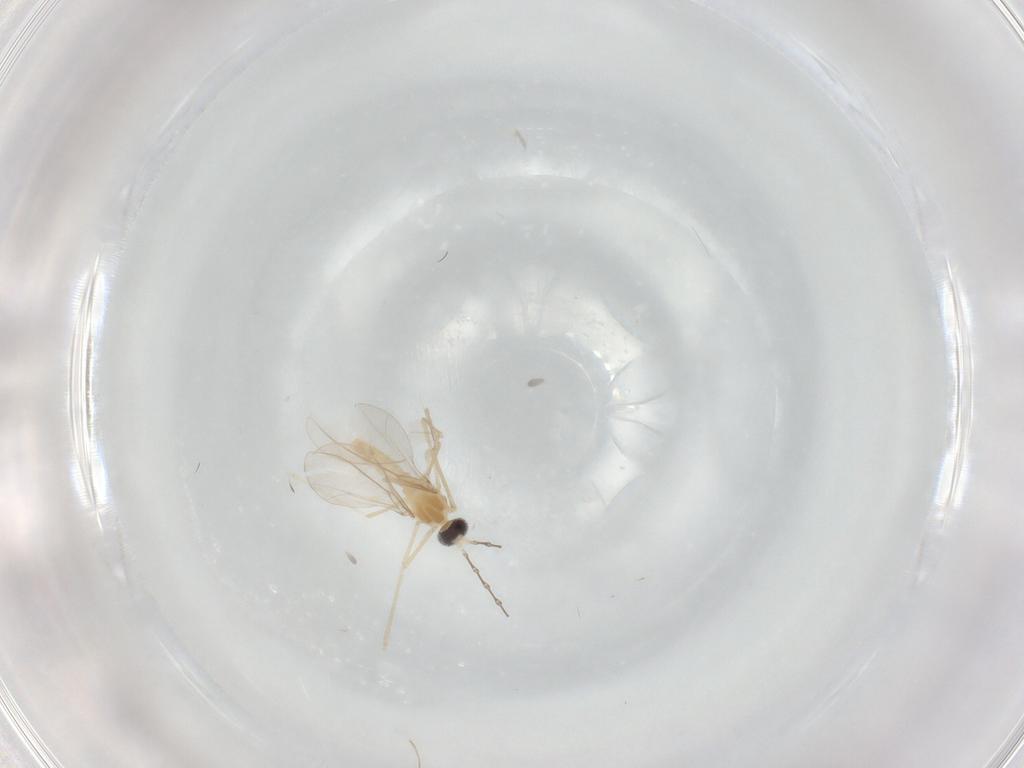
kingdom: Animalia
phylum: Arthropoda
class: Insecta
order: Diptera
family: Cecidomyiidae
